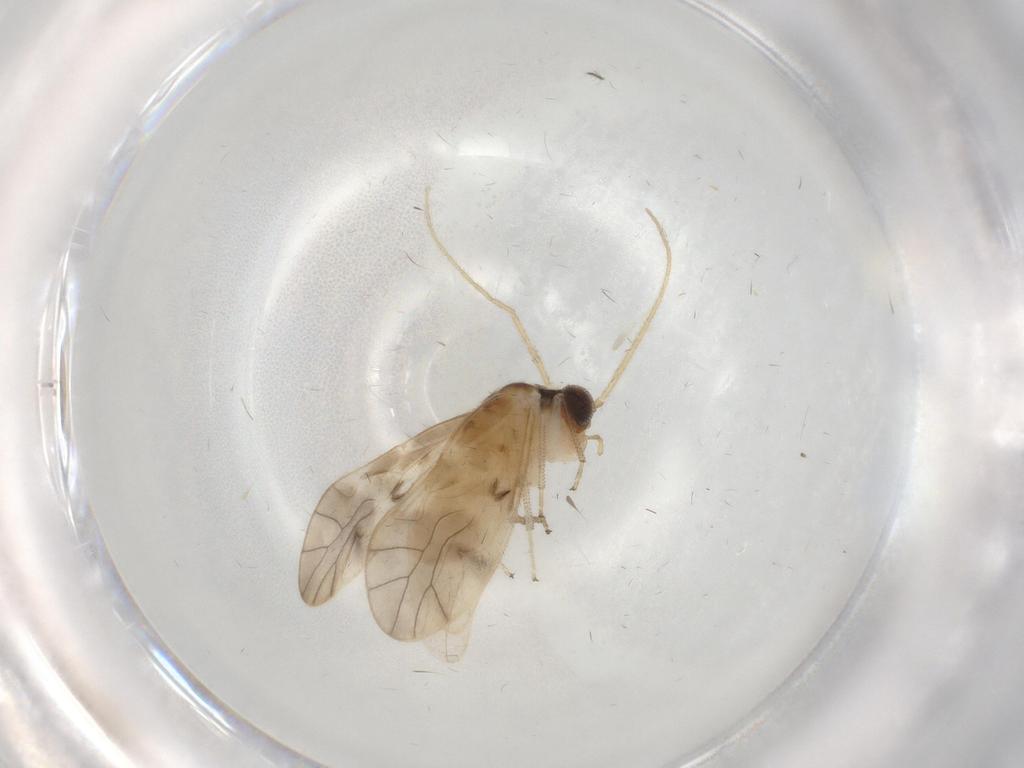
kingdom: Animalia
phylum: Arthropoda
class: Insecta
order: Psocodea
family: Caeciliusidae
